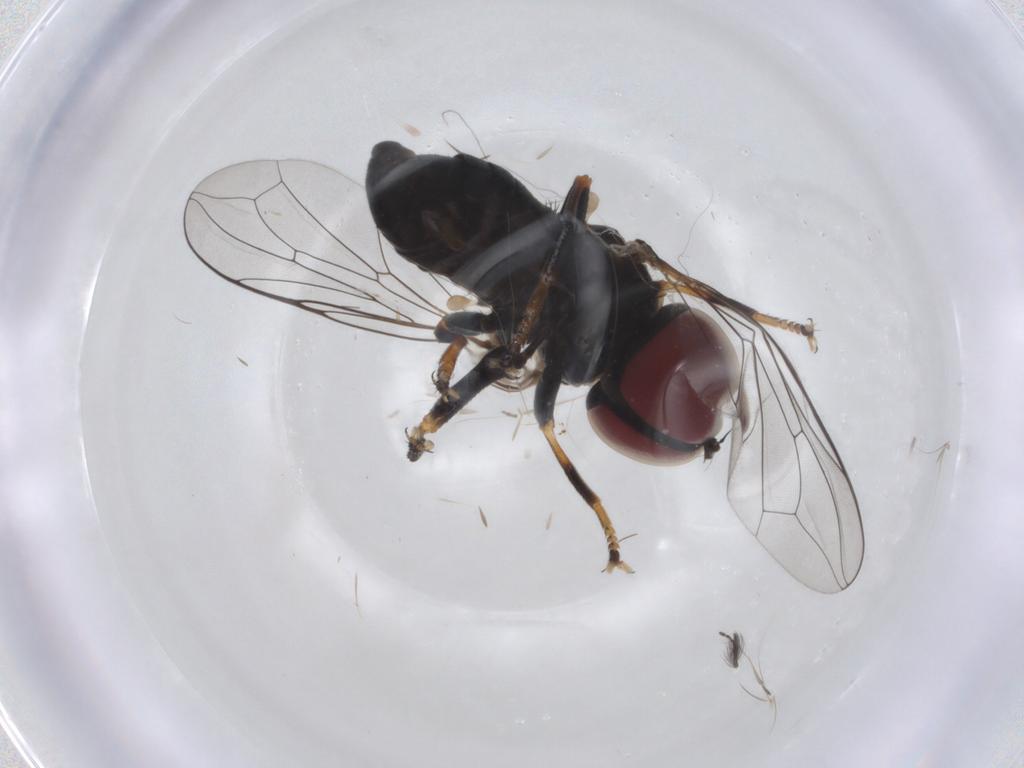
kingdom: Animalia
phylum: Arthropoda
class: Insecta
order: Diptera
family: Pipunculidae
